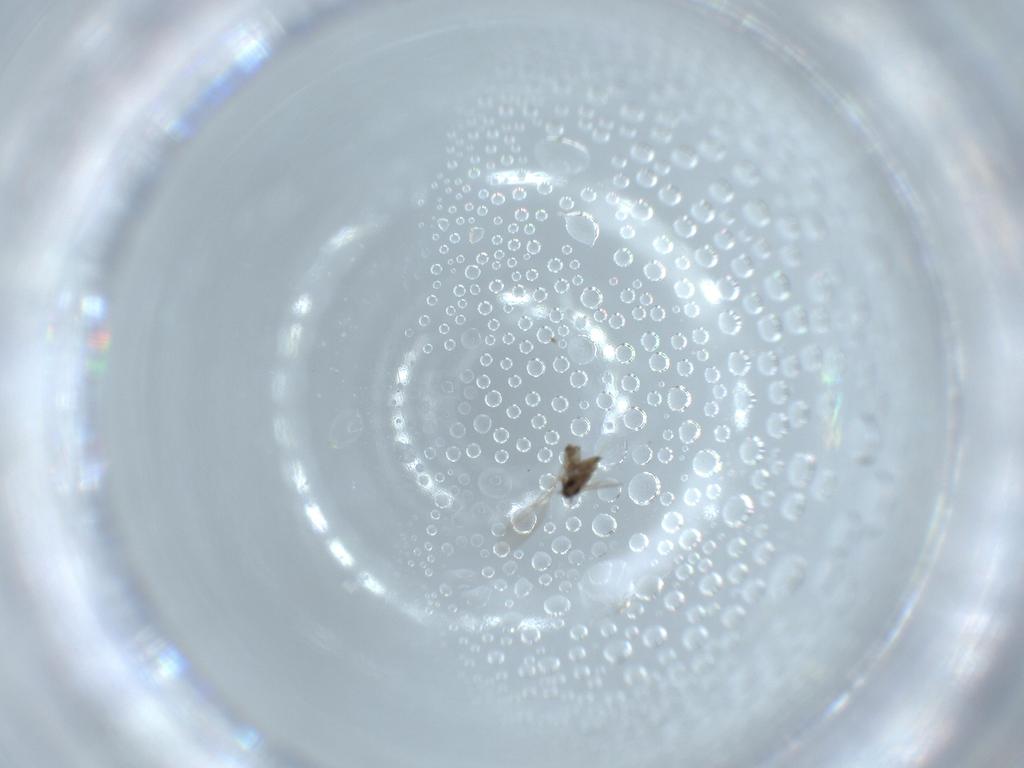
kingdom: Animalia
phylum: Arthropoda
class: Insecta
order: Diptera
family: Cecidomyiidae
